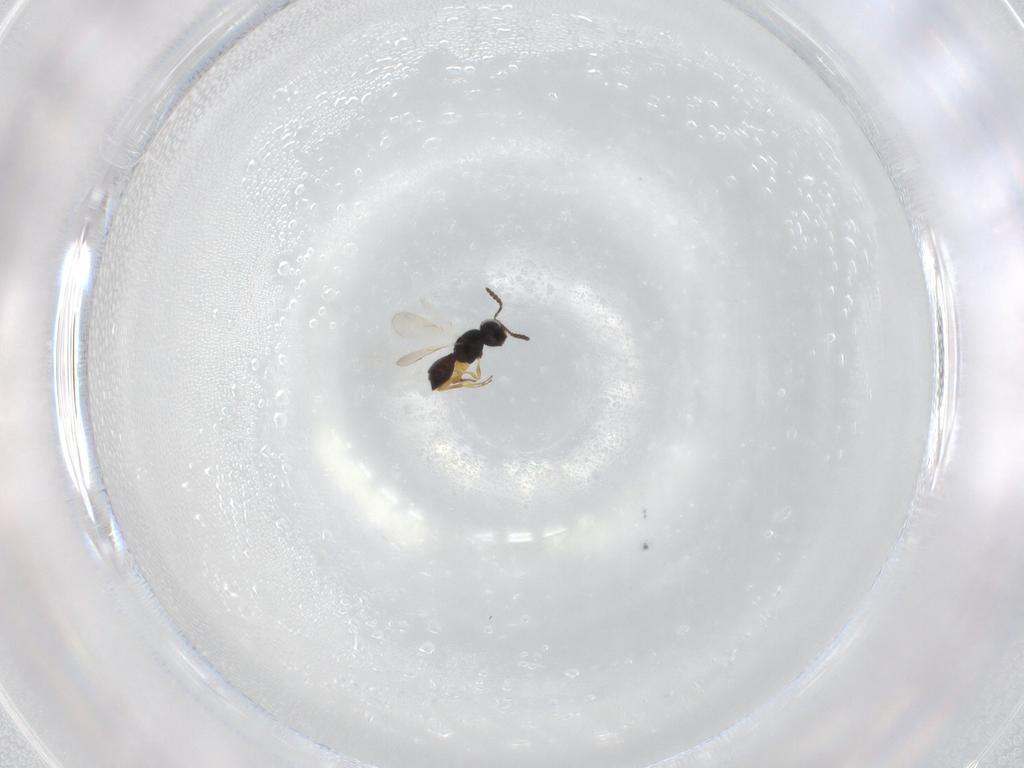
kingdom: Animalia
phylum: Arthropoda
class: Insecta
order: Hymenoptera
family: Scelionidae
